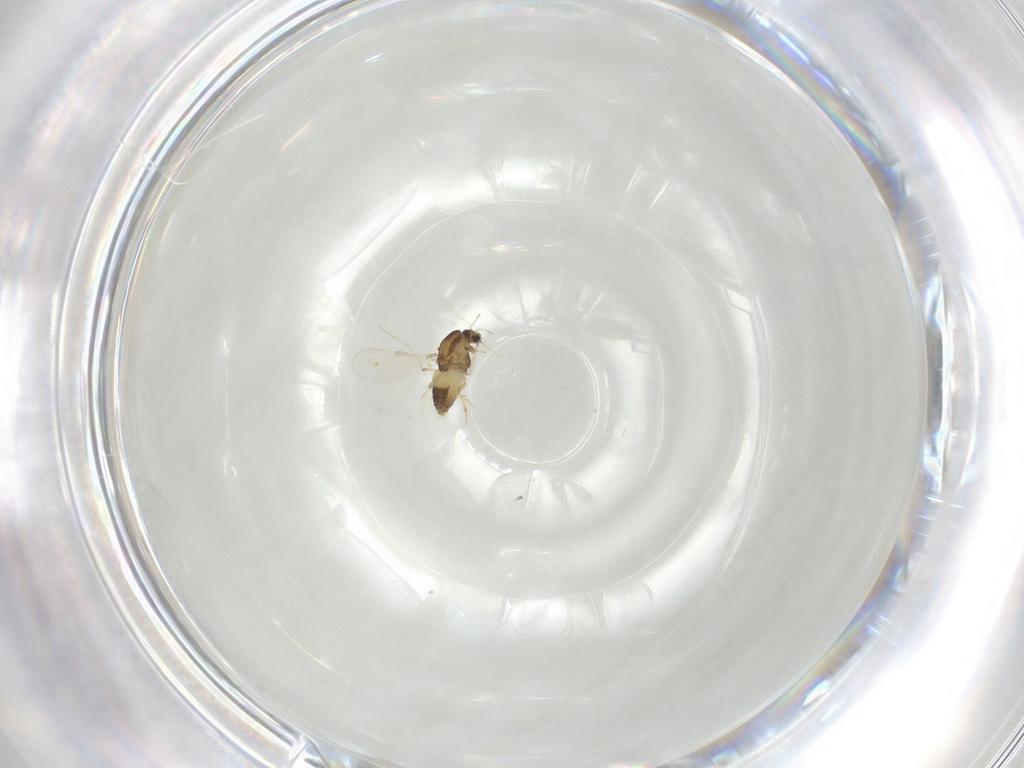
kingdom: Animalia
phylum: Arthropoda
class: Insecta
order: Diptera
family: Chironomidae
